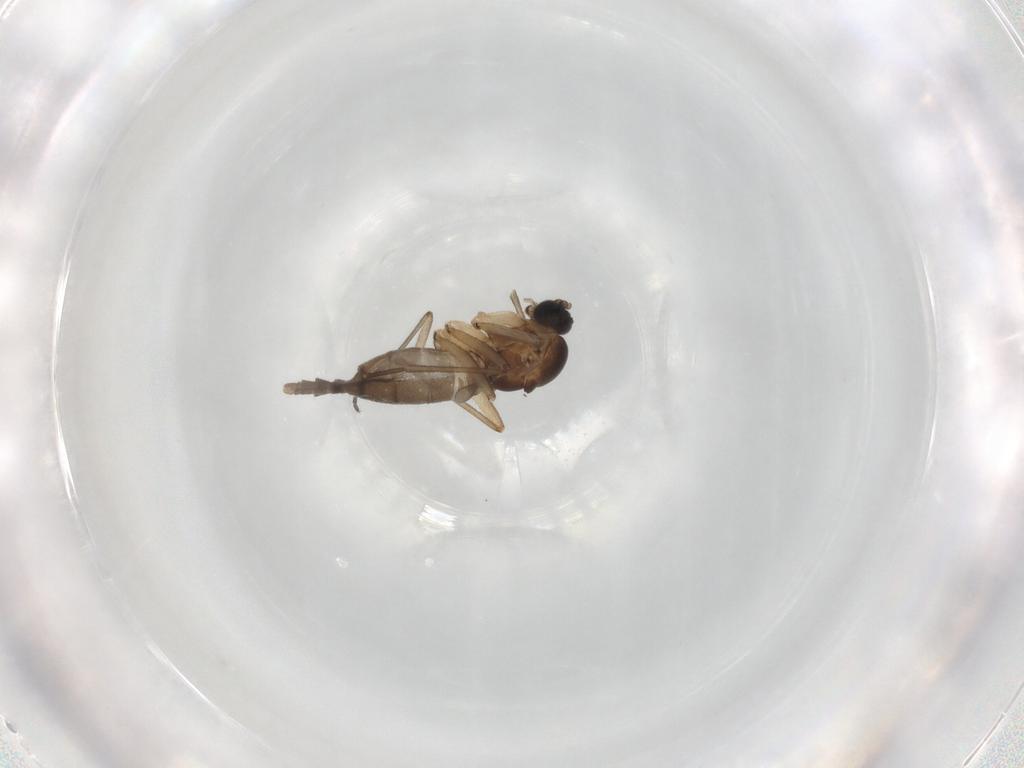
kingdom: Animalia
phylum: Arthropoda
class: Insecta
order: Diptera
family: Sciaridae
